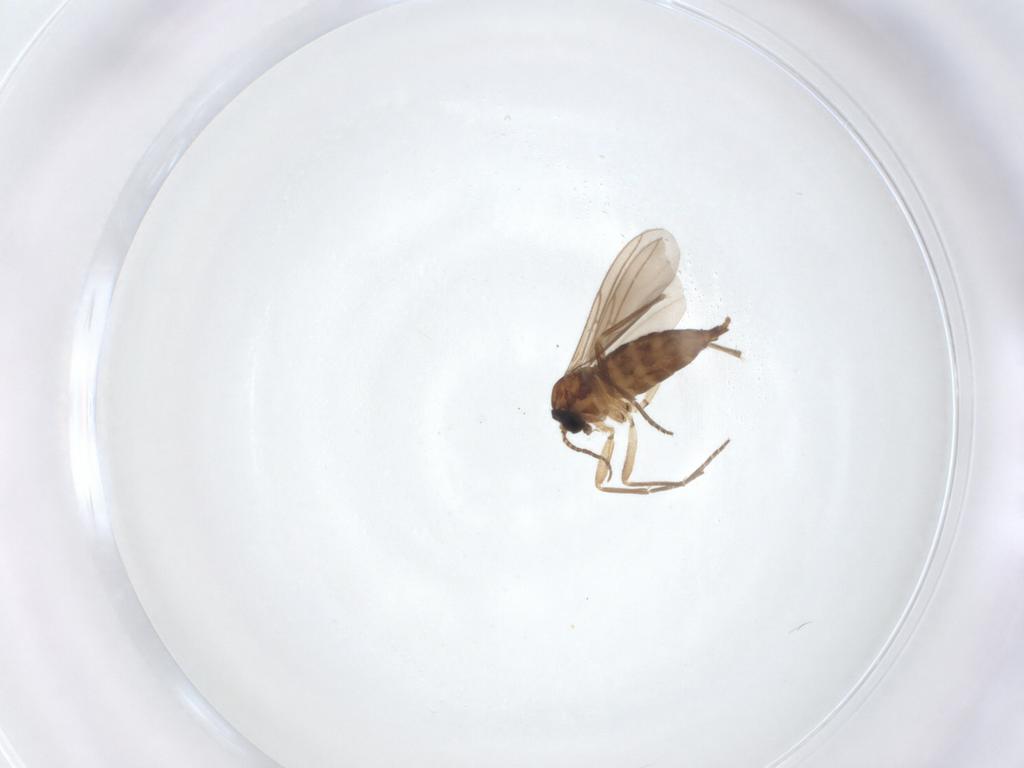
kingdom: Animalia
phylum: Arthropoda
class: Insecta
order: Diptera
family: Sciaridae
